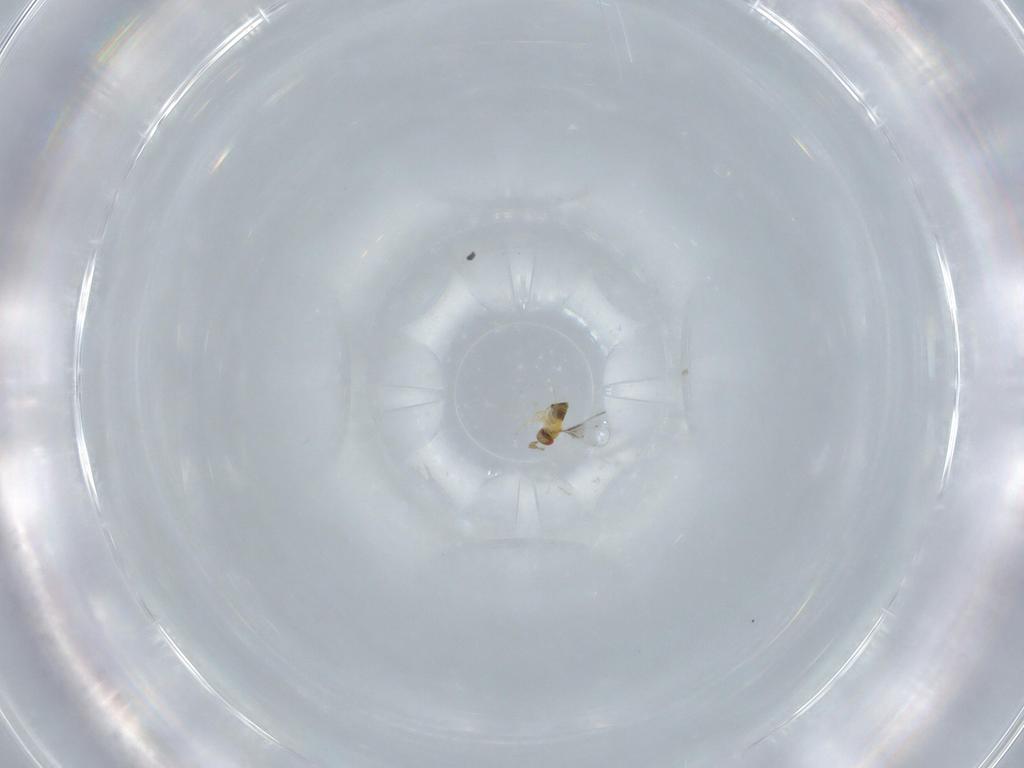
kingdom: Animalia
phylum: Arthropoda
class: Insecta
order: Hymenoptera
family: Trichogrammatidae
